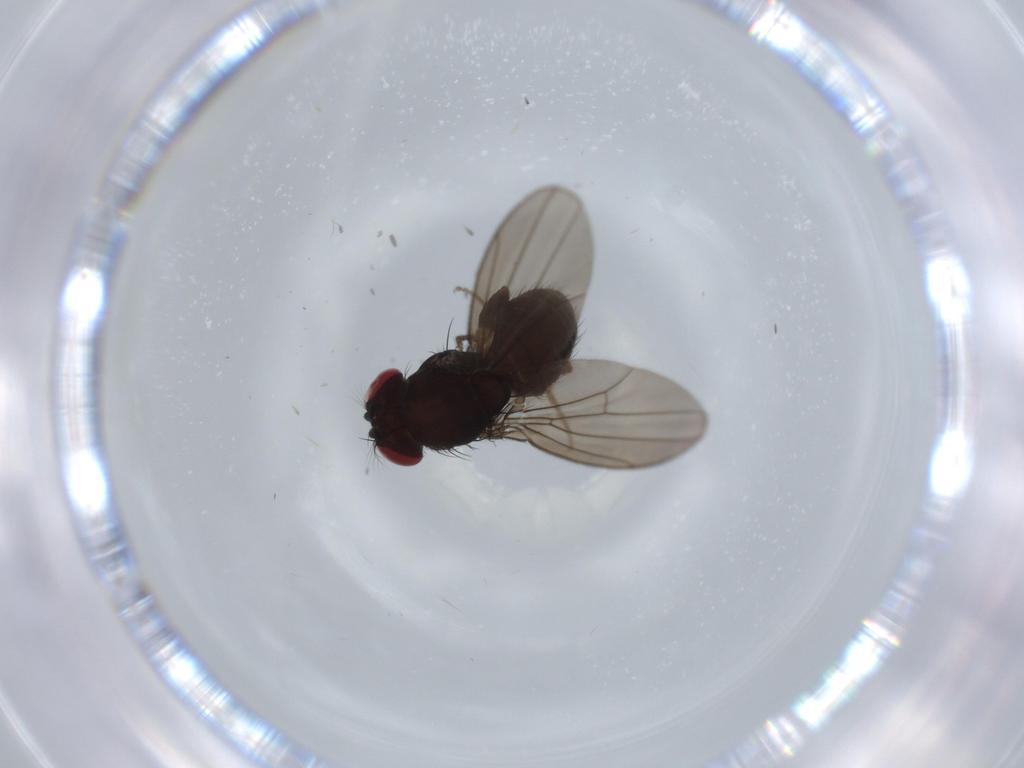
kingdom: Animalia
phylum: Arthropoda
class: Insecta
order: Diptera
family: Drosophilidae
